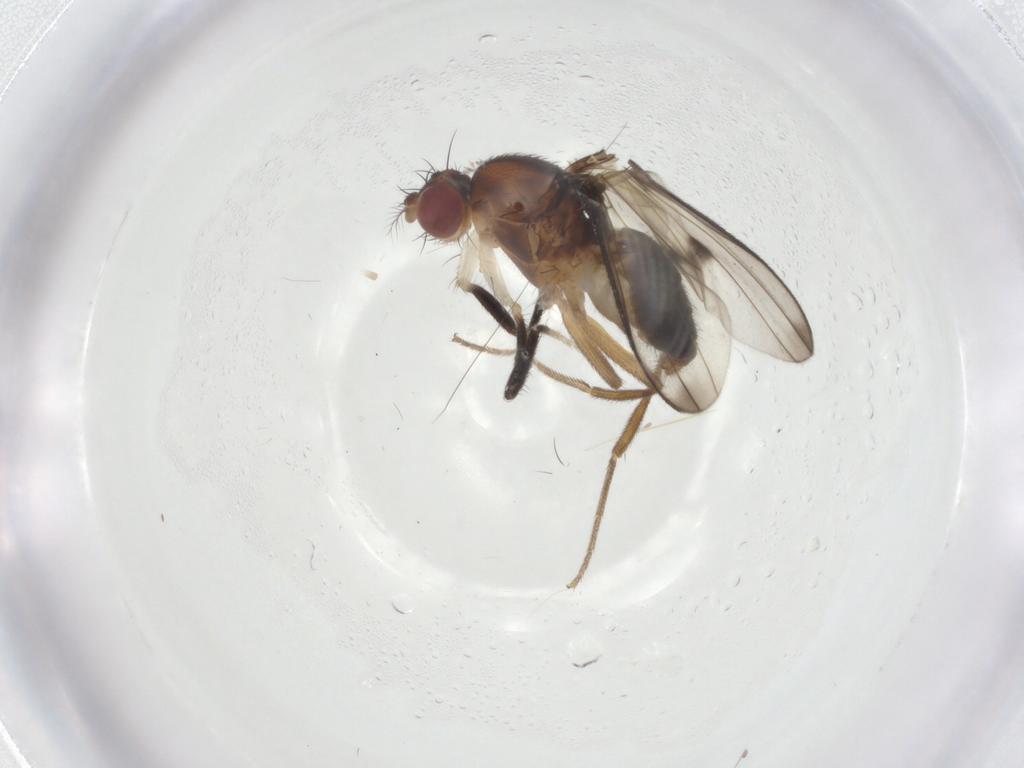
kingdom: Animalia
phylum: Arthropoda
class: Insecta
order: Diptera
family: Drosophilidae
